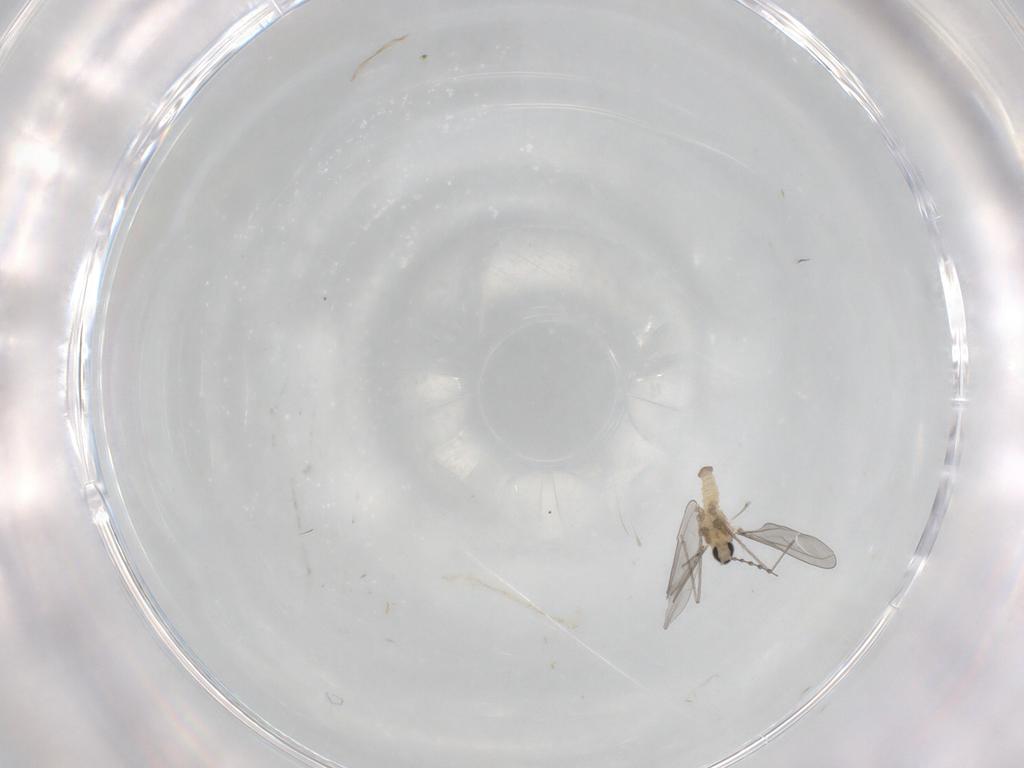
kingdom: Animalia
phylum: Arthropoda
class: Insecta
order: Diptera
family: Cecidomyiidae
